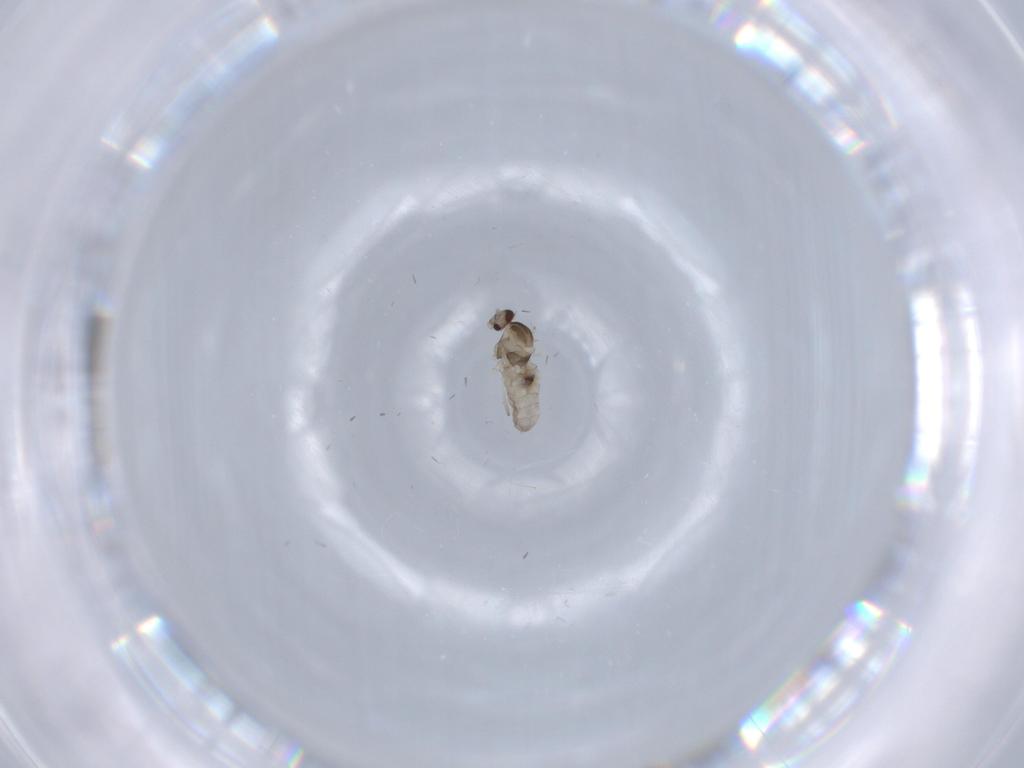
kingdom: Animalia
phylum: Arthropoda
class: Insecta
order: Diptera
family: Cecidomyiidae
